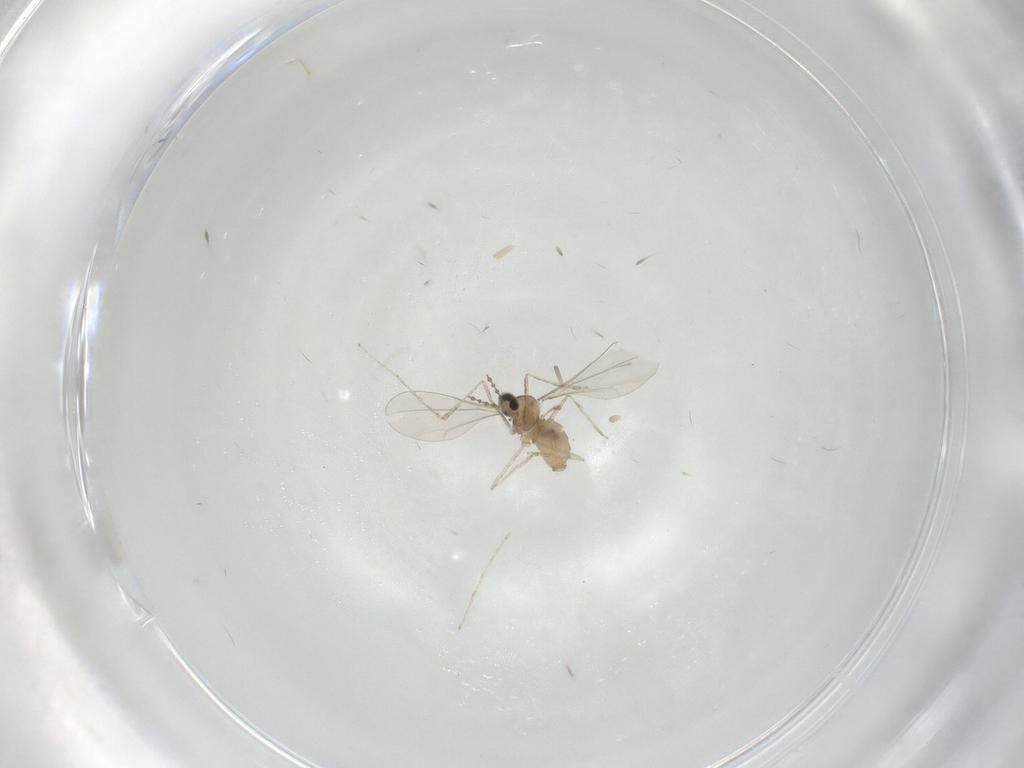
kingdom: Animalia
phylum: Arthropoda
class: Insecta
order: Diptera
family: Cecidomyiidae
